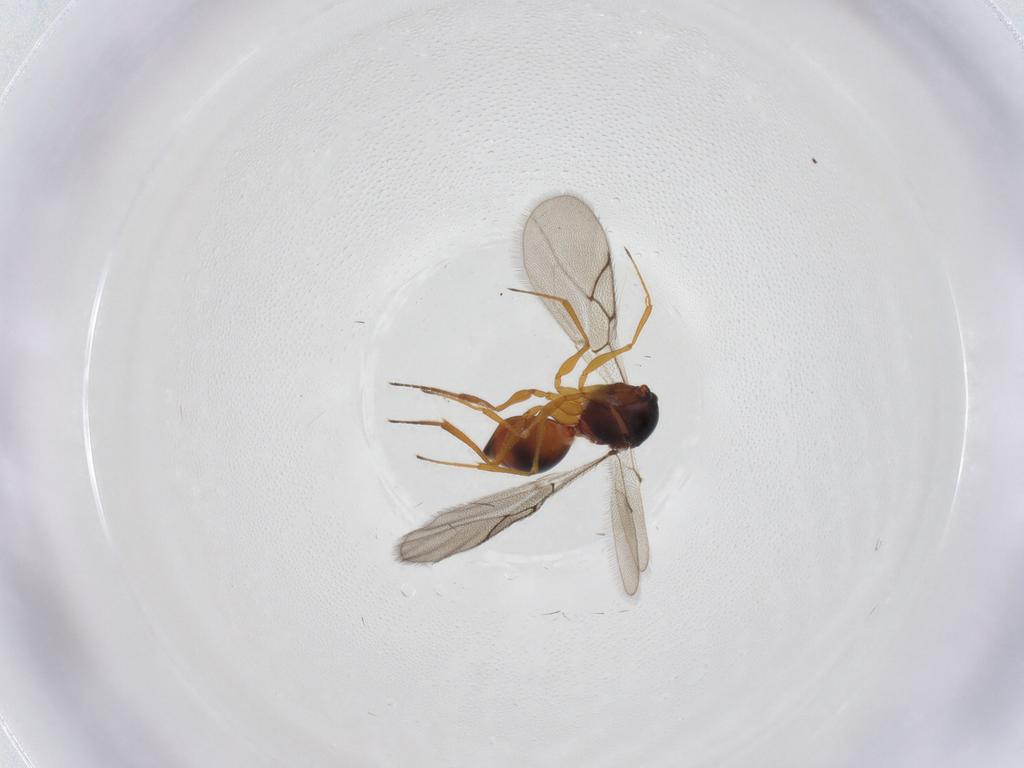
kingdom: Animalia
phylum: Arthropoda
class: Insecta
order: Hymenoptera
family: Figitidae
